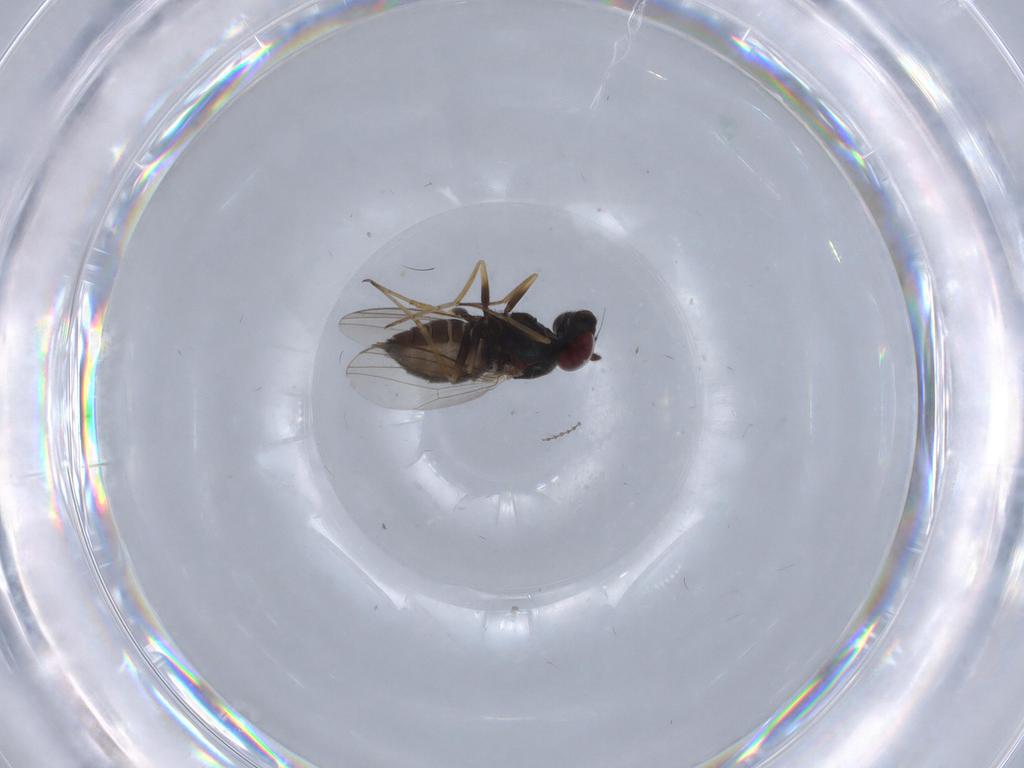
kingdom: Animalia
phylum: Arthropoda
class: Insecta
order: Diptera
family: Dolichopodidae
